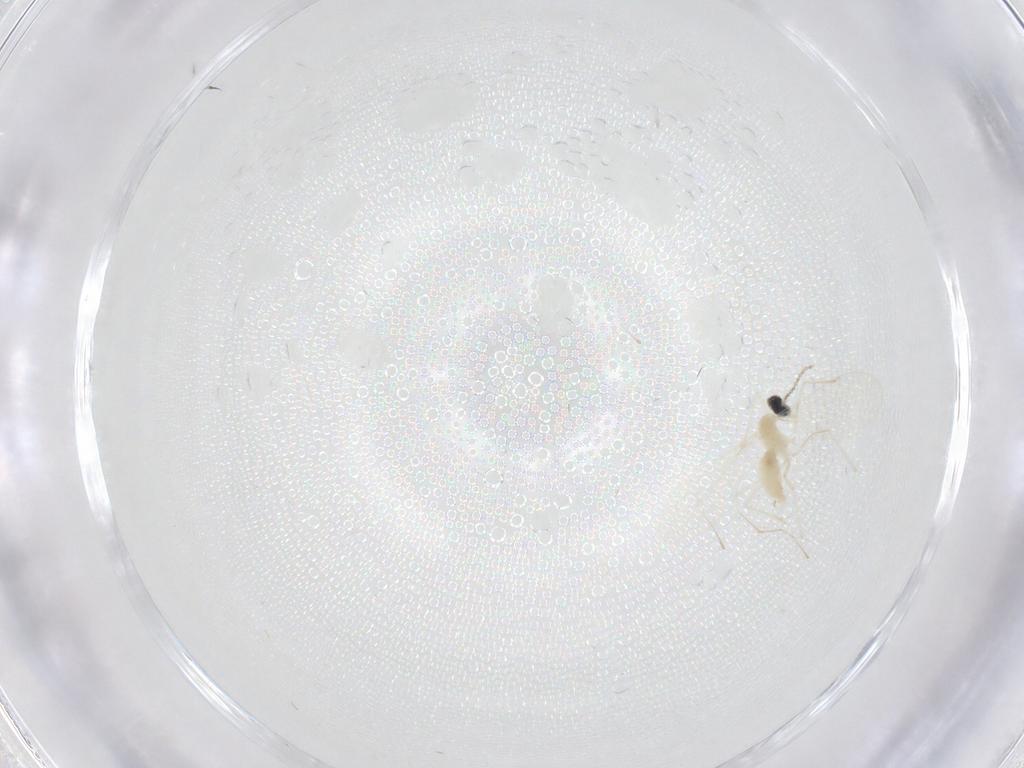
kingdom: Animalia
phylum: Arthropoda
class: Insecta
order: Diptera
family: Cecidomyiidae
